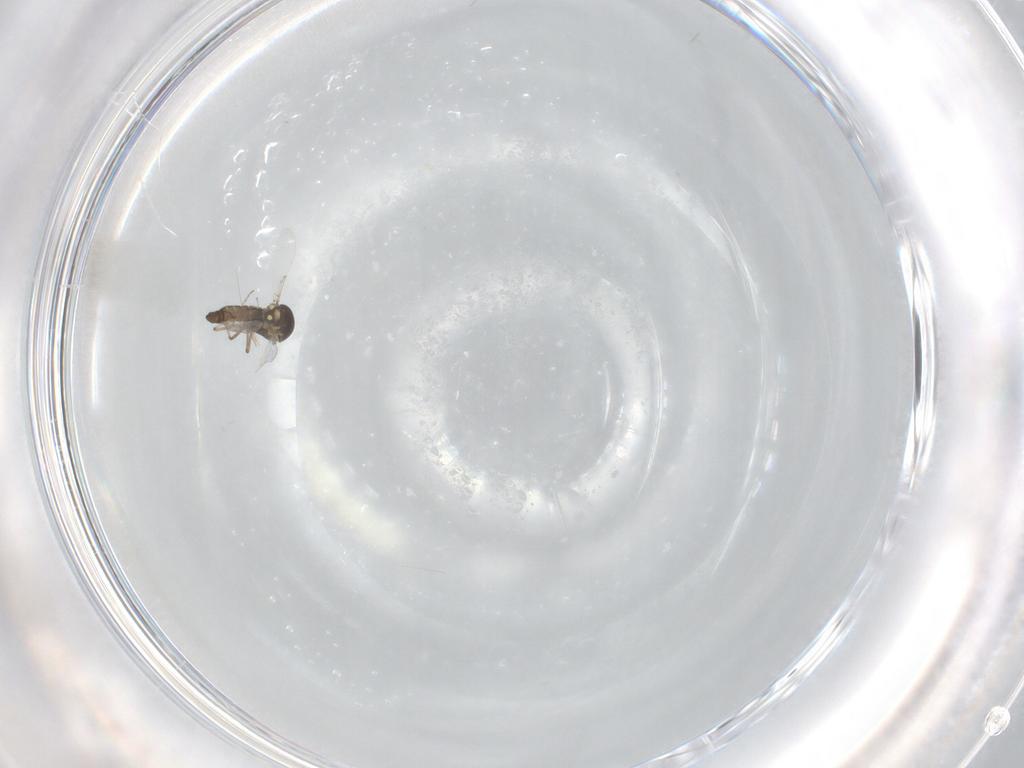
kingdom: Animalia
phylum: Arthropoda
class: Insecta
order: Diptera
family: Ceratopogonidae
